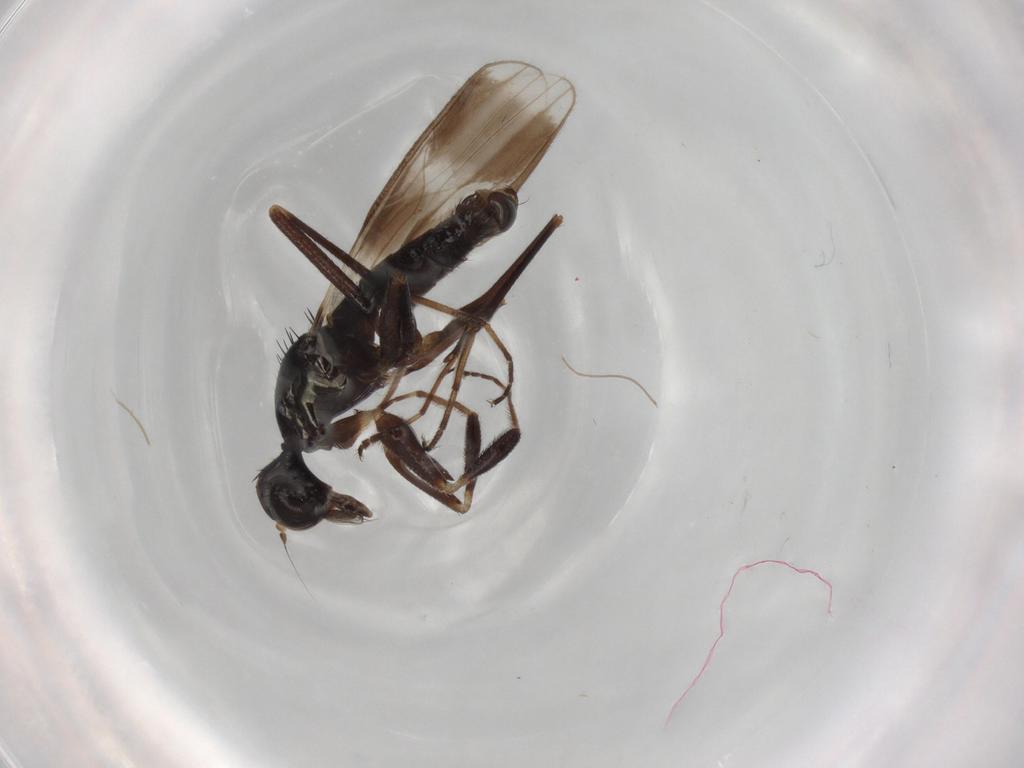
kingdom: Animalia
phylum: Arthropoda
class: Insecta
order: Diptera
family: Hybotidae
